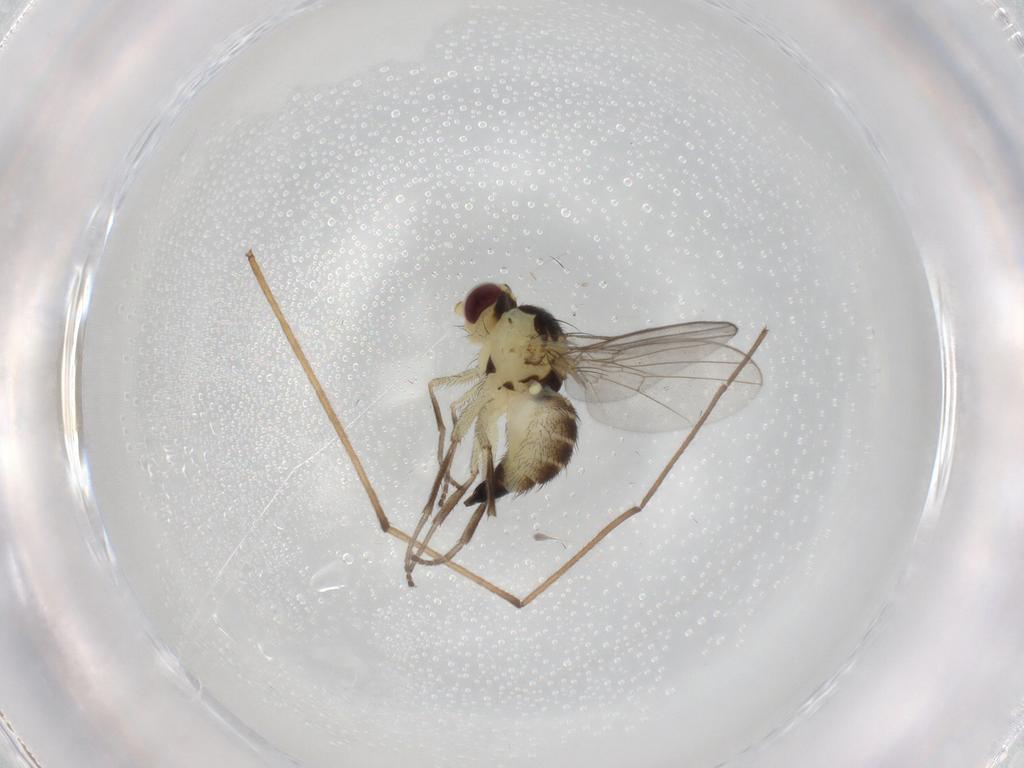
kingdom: Animalia
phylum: Arthropoda
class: Insecta
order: Diptera
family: Agromyzidae
